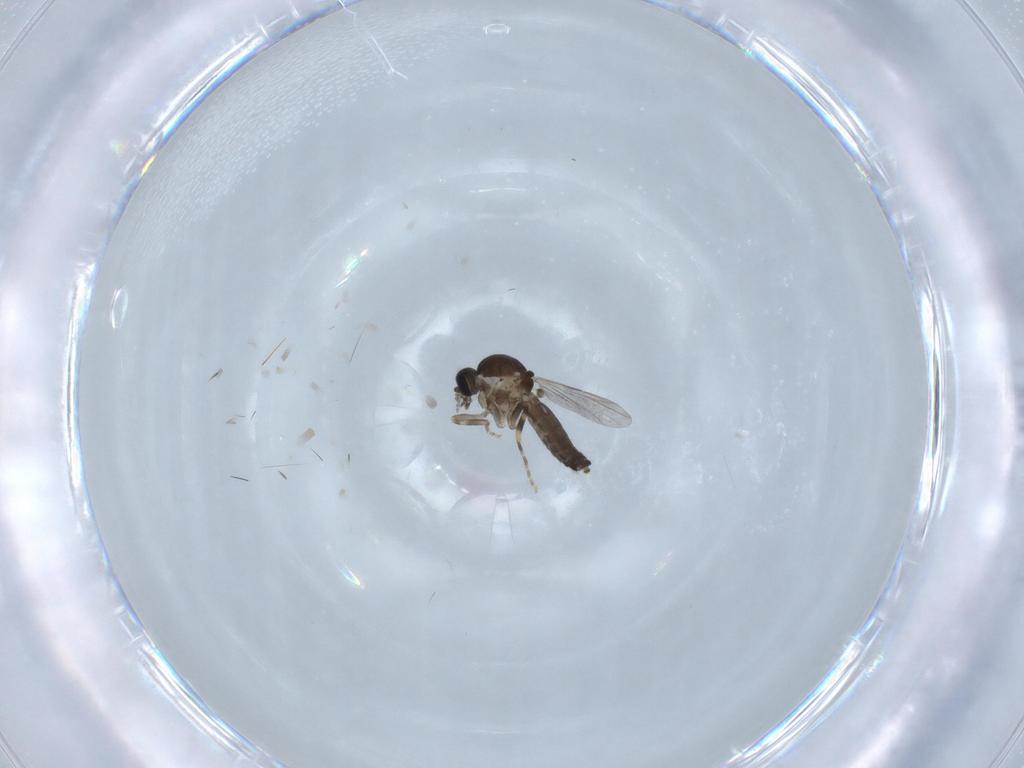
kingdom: Animalia
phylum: Arthropoda
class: Insecta
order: Diptera
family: Ceratopogonidae
